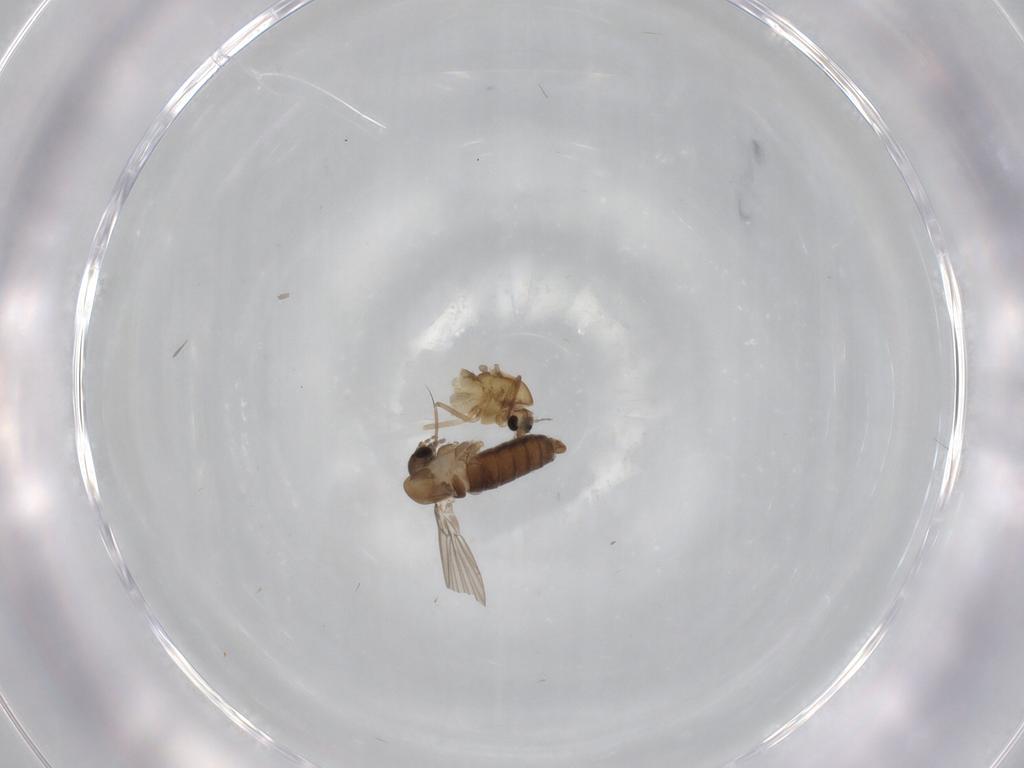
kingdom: Animalia
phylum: Arthropoda
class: Insecta
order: Diptera
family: Chironomidae
